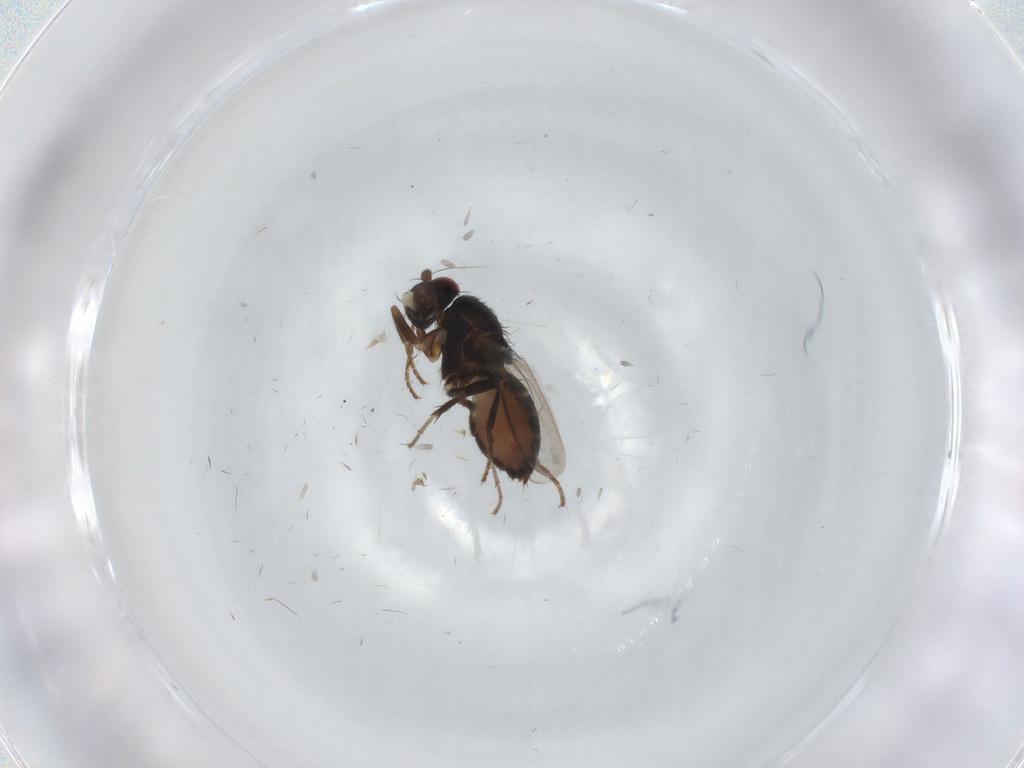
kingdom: Animalia
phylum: Arthropoda
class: Insecta
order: Diptera
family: Sphaeroceridae
